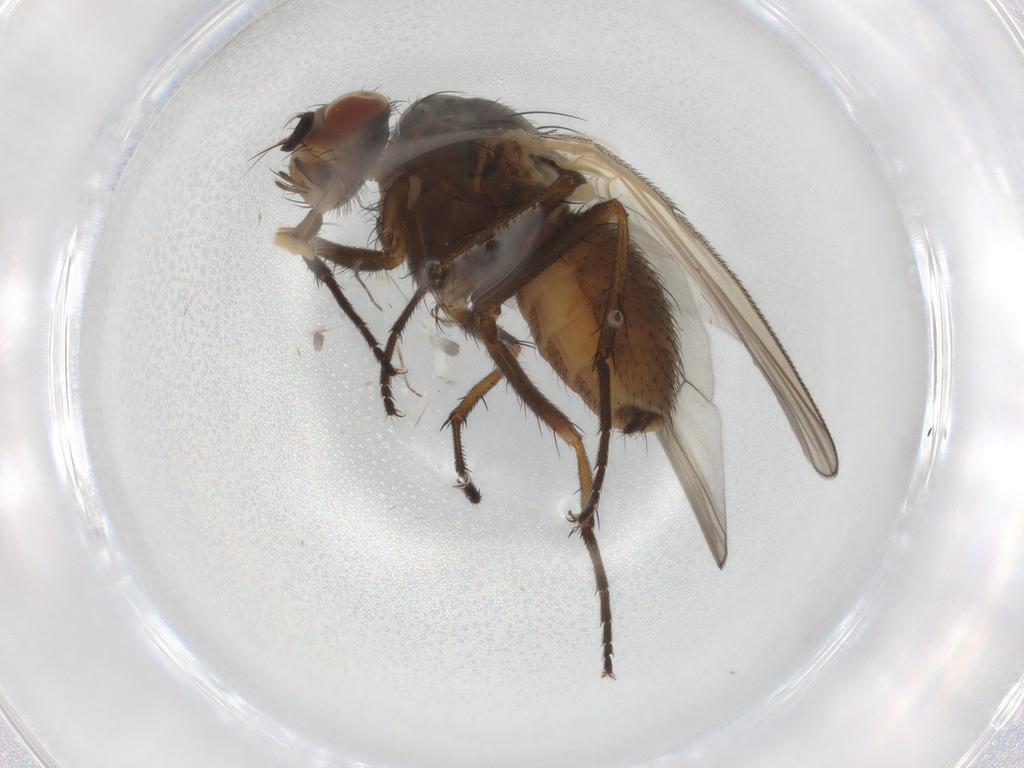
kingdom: Animalia
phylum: Arthropoda
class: Insecta
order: Diptera
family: Anthomyiidae
